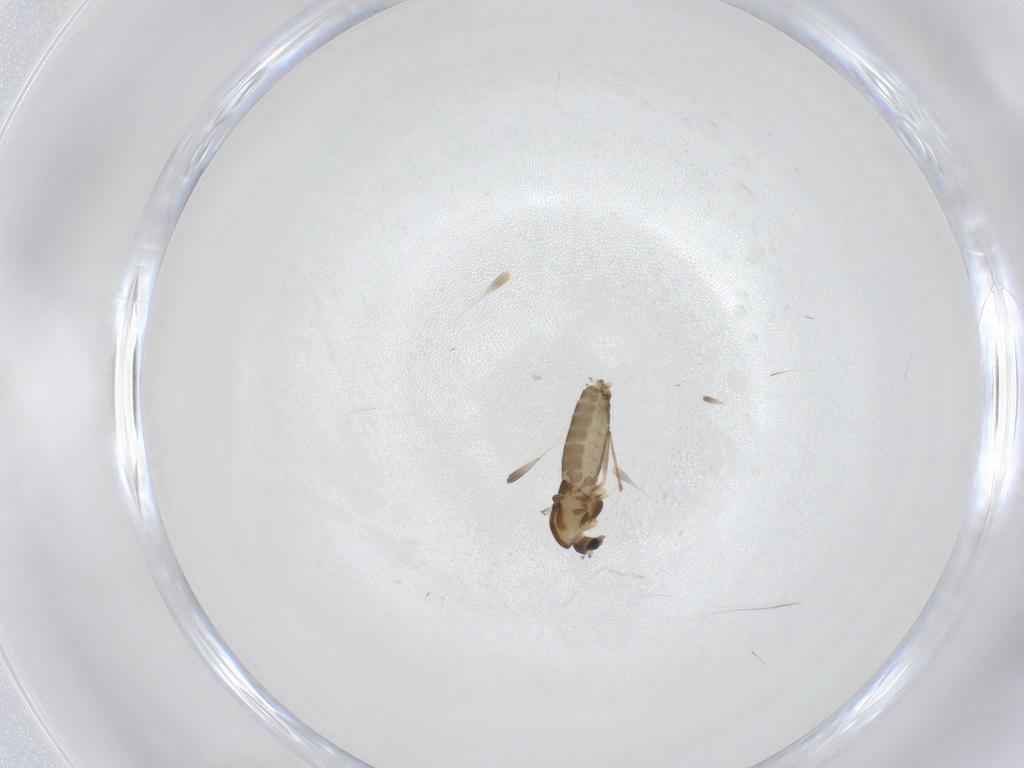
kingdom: Animalia
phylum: Arthropoda
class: Insecta
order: Diptera
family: Chironomidae
